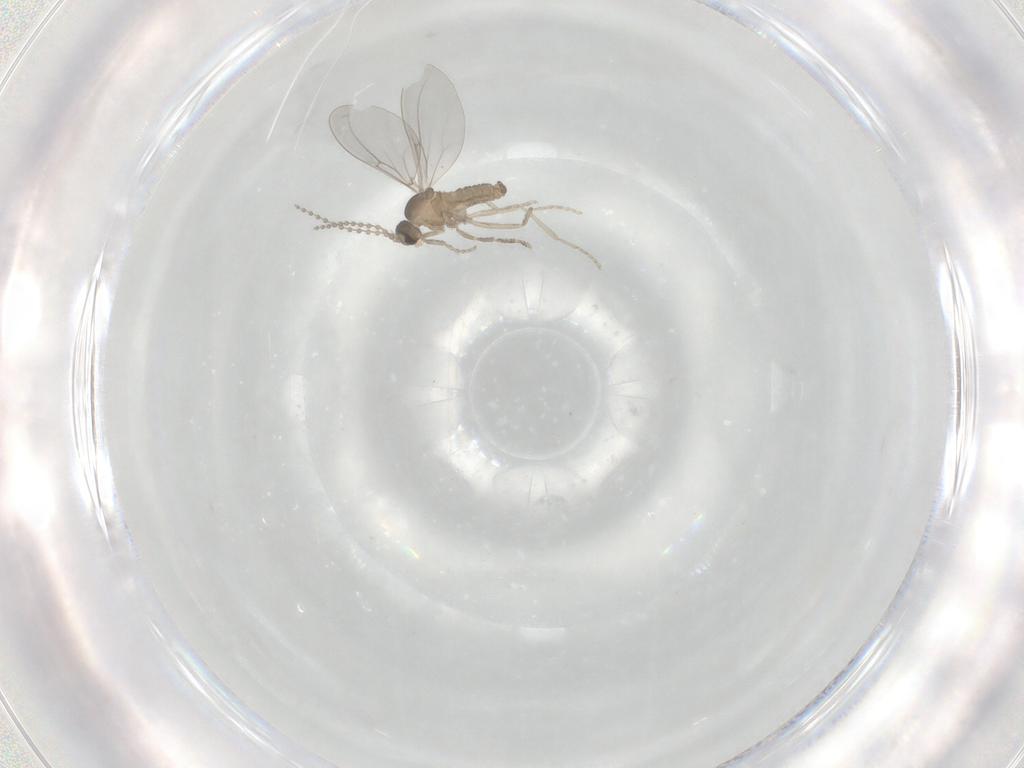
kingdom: Animalia
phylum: Arthropoda
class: Insecta
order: Diptera
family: Cecidomyiidae
